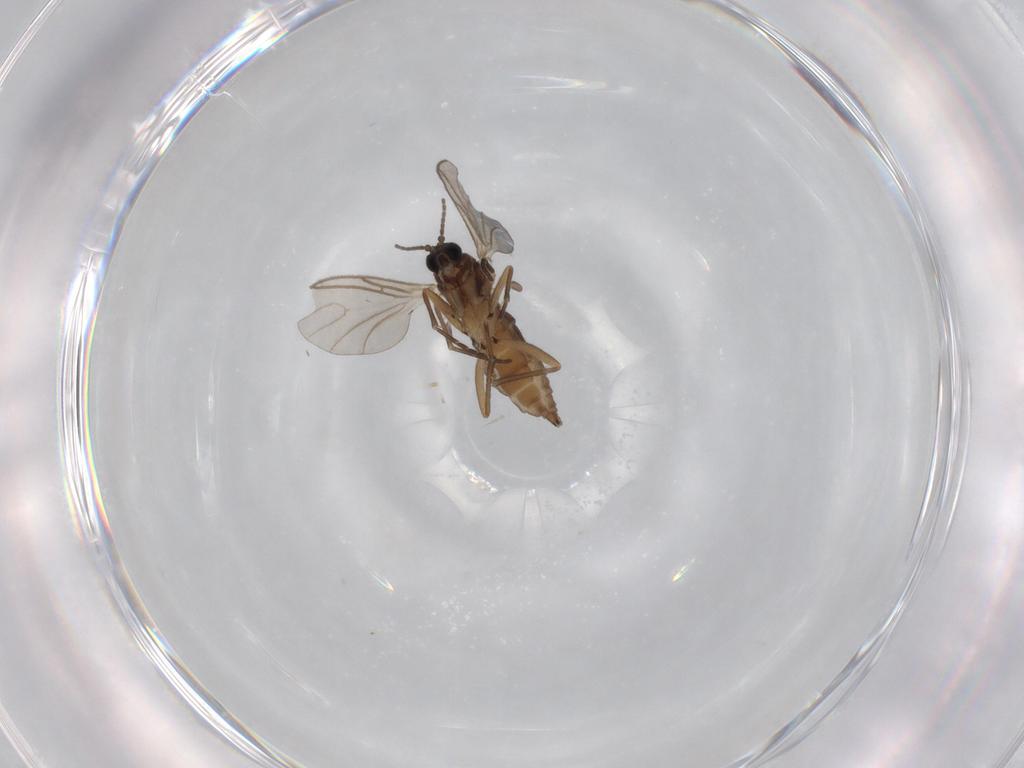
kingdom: Animalia
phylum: Arthropoda
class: Insecta
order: Diptera
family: Sciaridae
